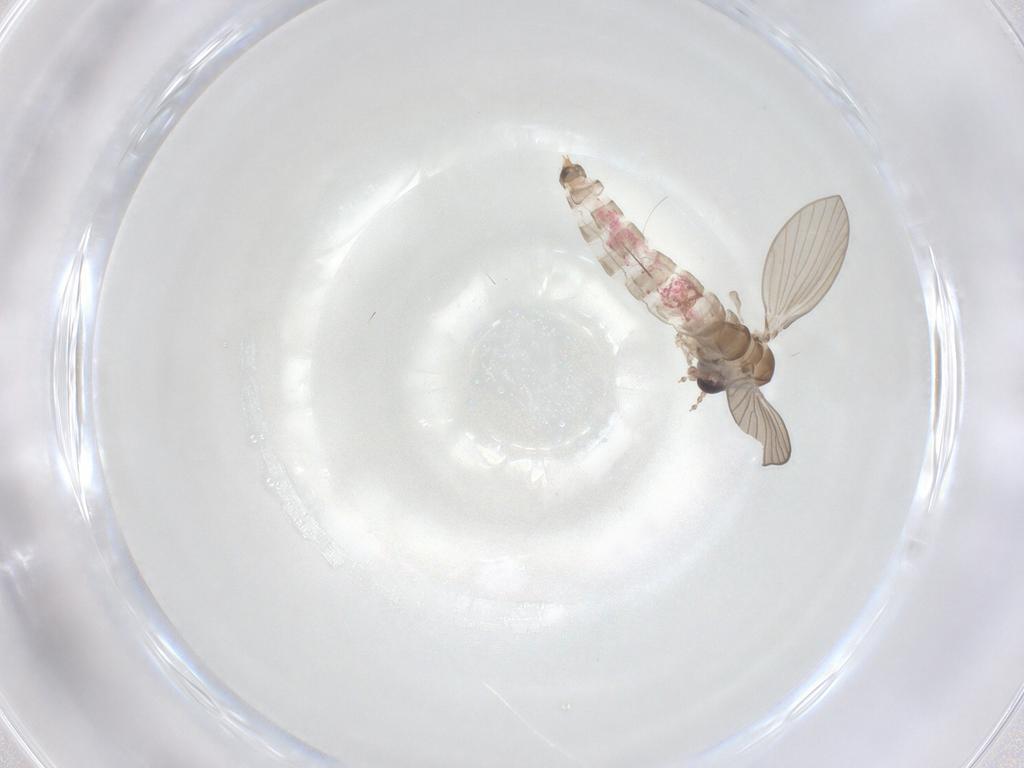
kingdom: Animalia
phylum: Arthropoda
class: Insecta
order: Diptera
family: Psychodidae
